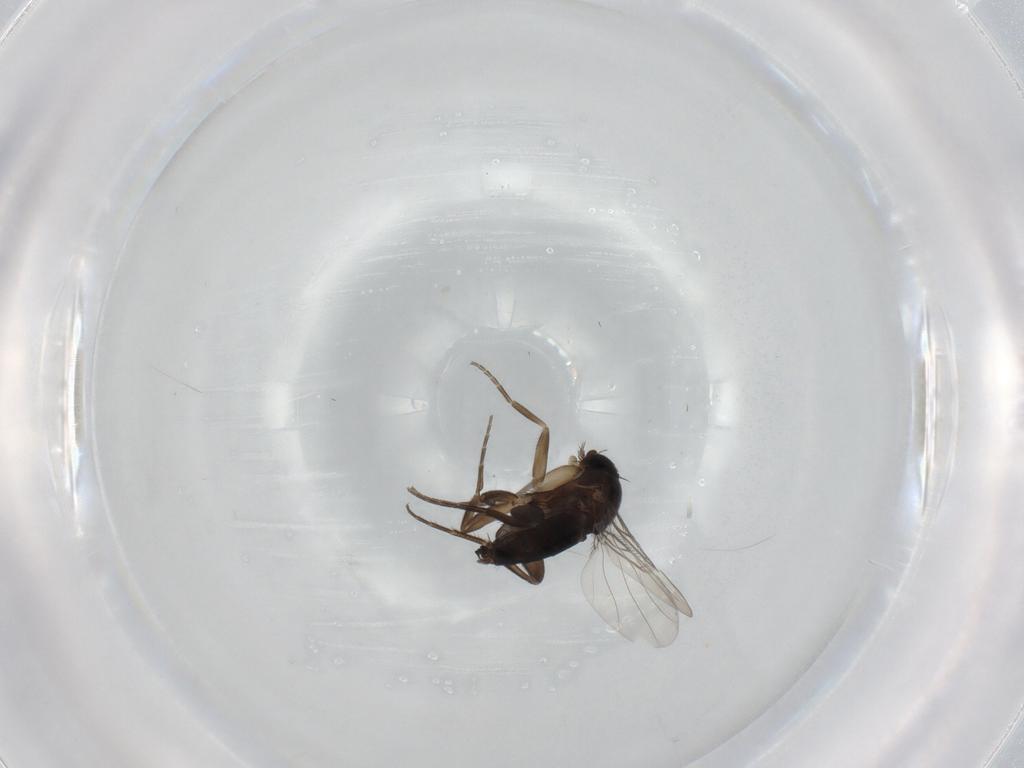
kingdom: Animalia
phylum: Arthropoda
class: Insecta
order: Diptera
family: Phoridae
